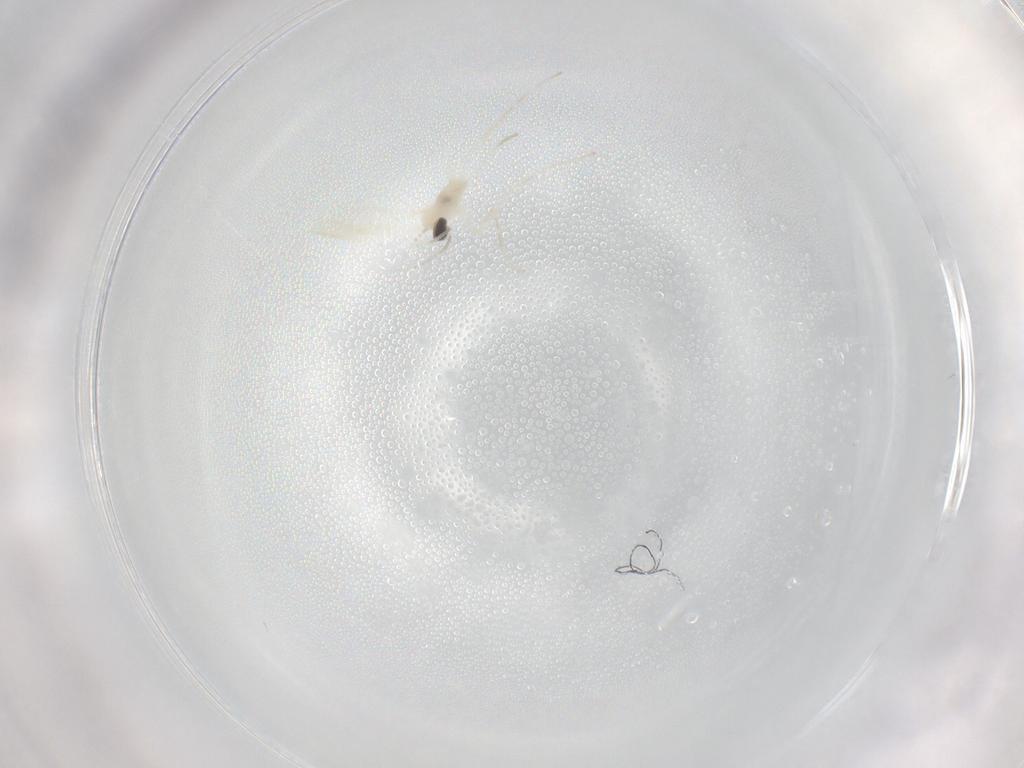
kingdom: Animalia
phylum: Arthropoda
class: Insecta
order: Diptera
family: Cecidomyiidae
